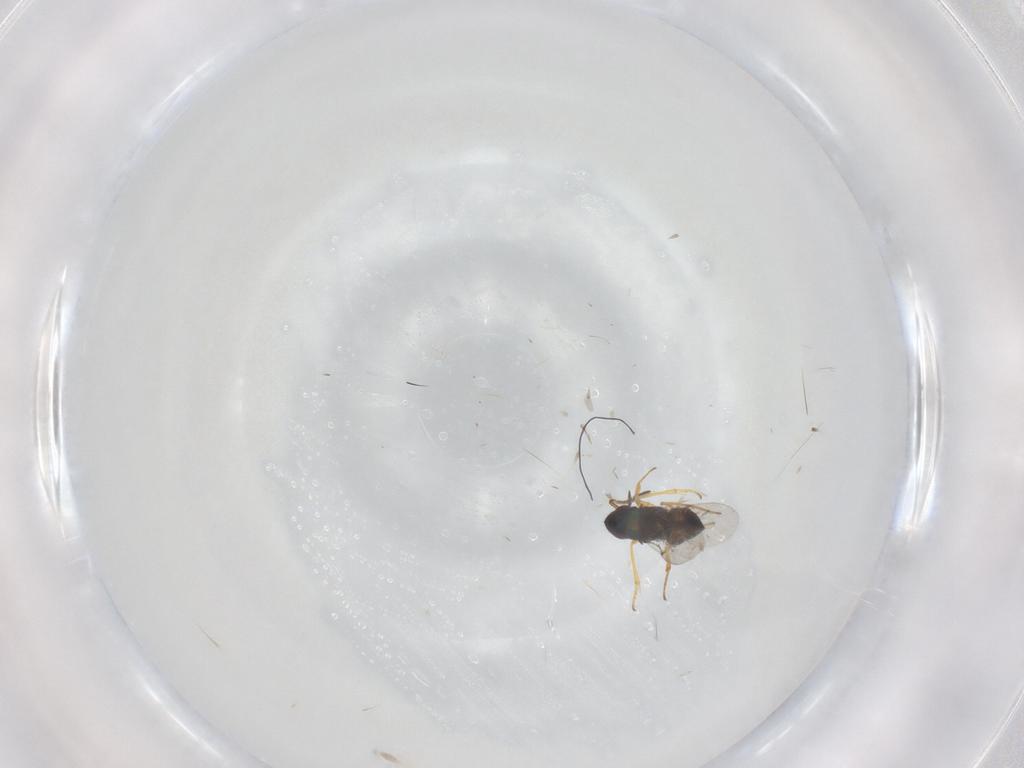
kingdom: Animalia
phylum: Arthropoda
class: Insecta
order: Hymenoptera
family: Encyrtidae
